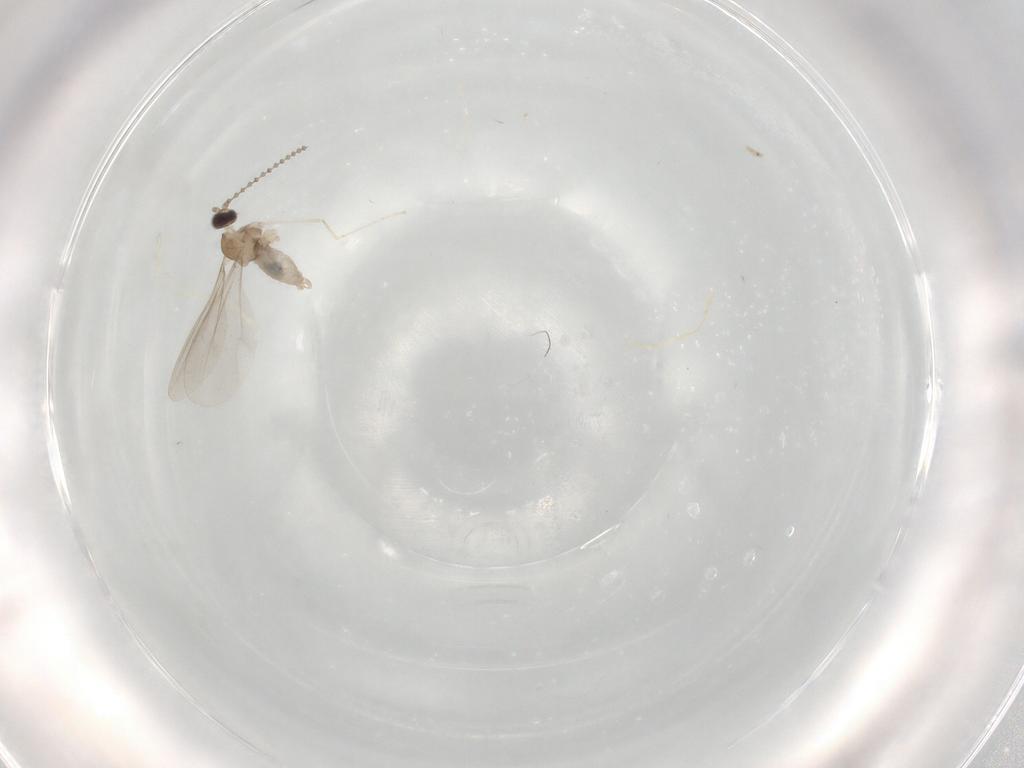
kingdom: Animalia
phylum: Arthropoda
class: Insecta
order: Diptera
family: Cecidomyiidae
